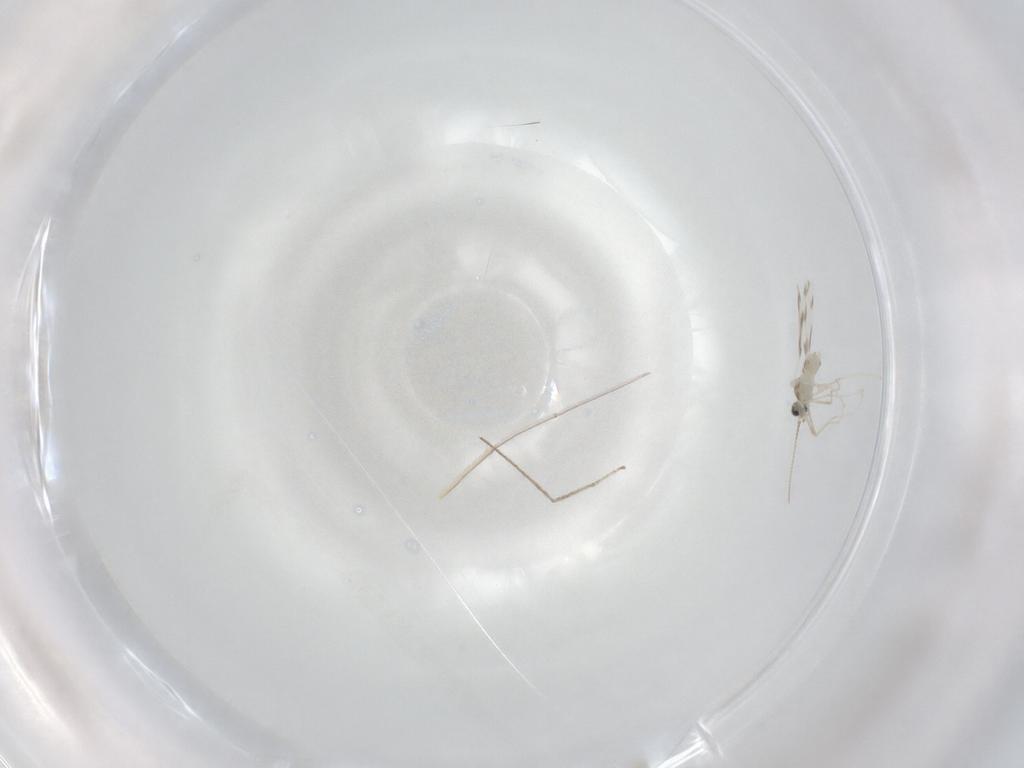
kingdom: Animalia
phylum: Arthropoda
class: Insecta
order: Diptera
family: Cecidomyiidae
